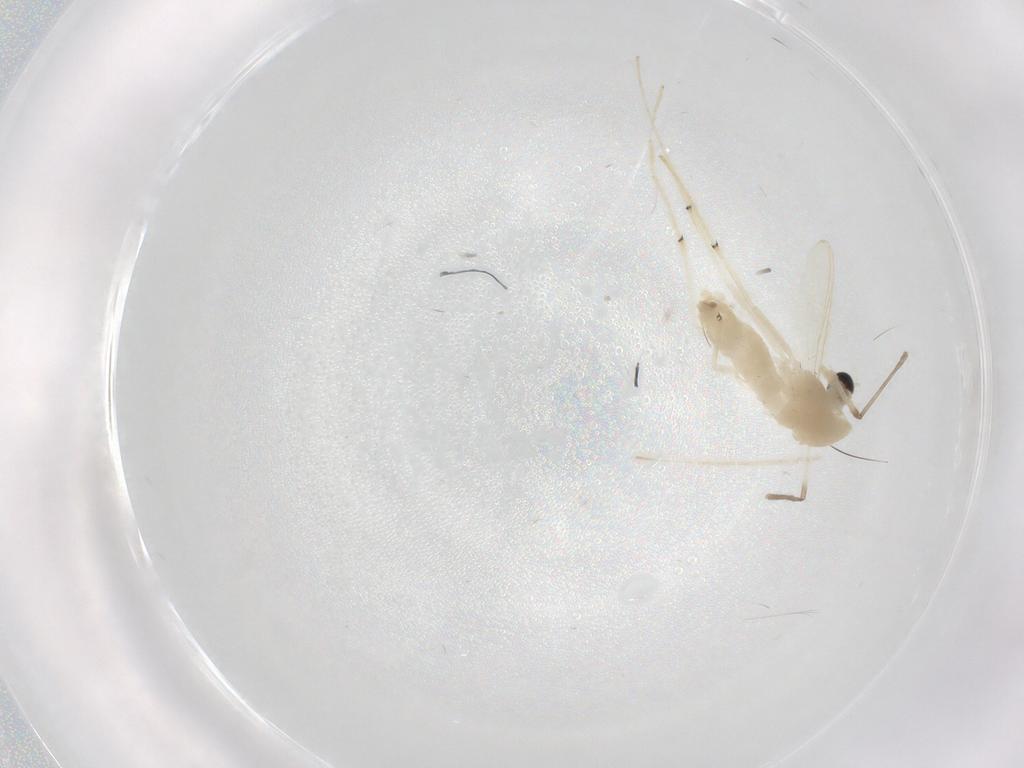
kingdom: Animalia
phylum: Arthropoda
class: Insecta
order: Diptera
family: Chironomidae
